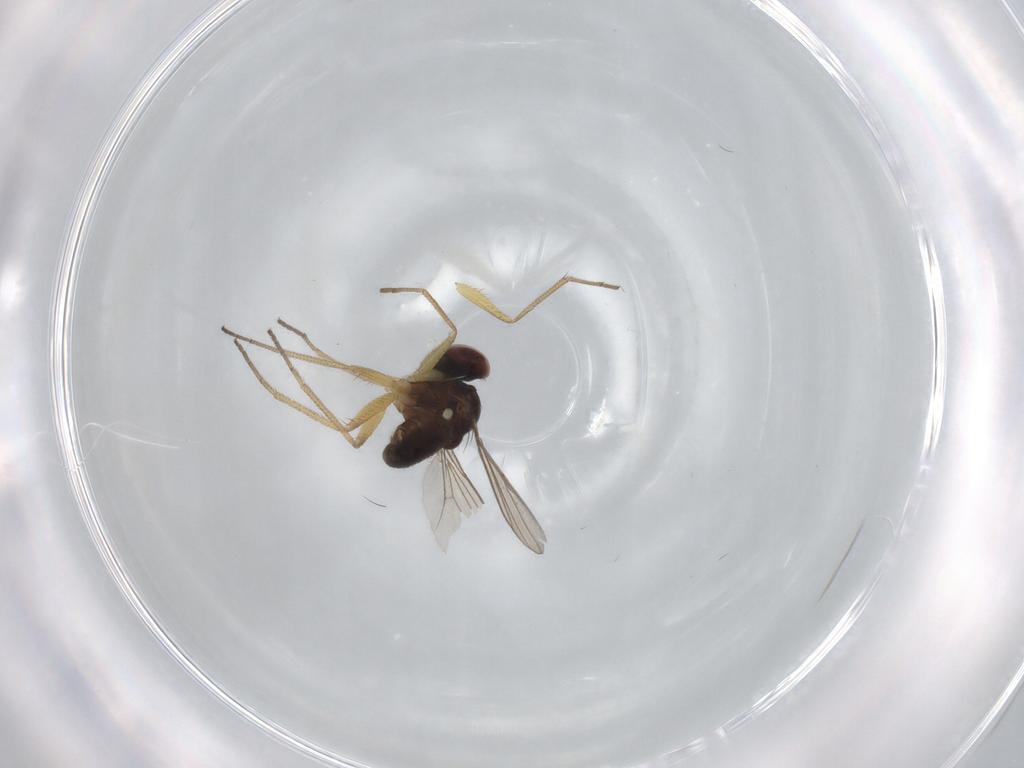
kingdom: Animalia
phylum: Arthropoda
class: Insecta
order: Diptera
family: Dolichopodidae
